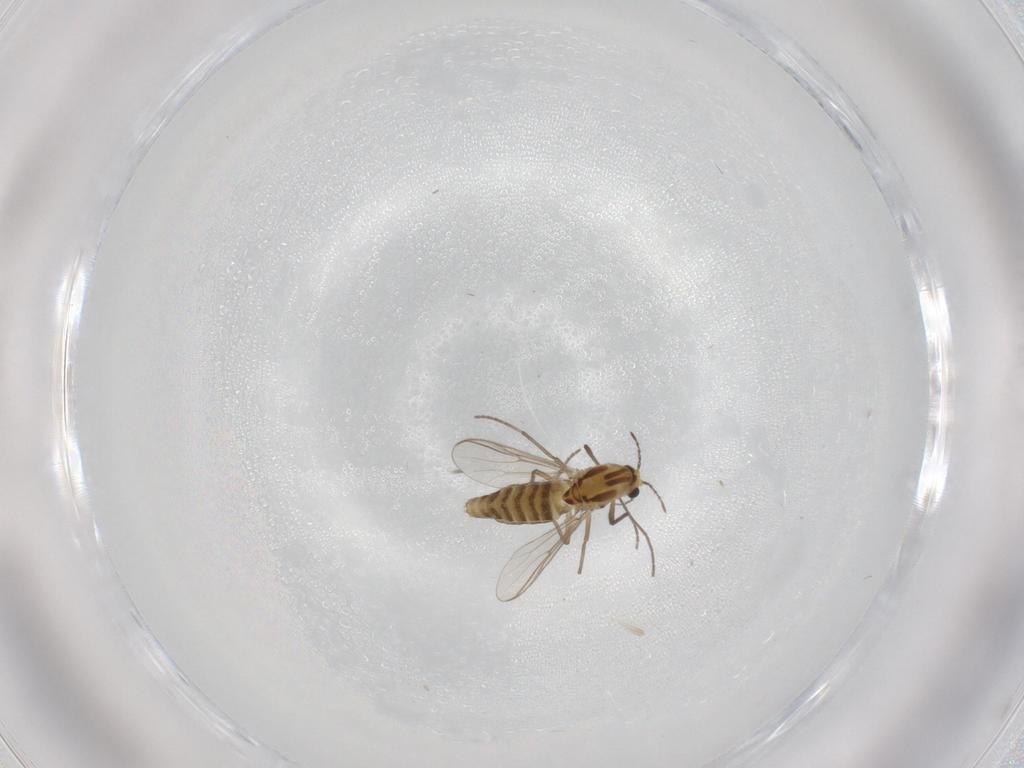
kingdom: Animalia
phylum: Arthropoda
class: Insecta
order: Diptera
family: Chironomidae
